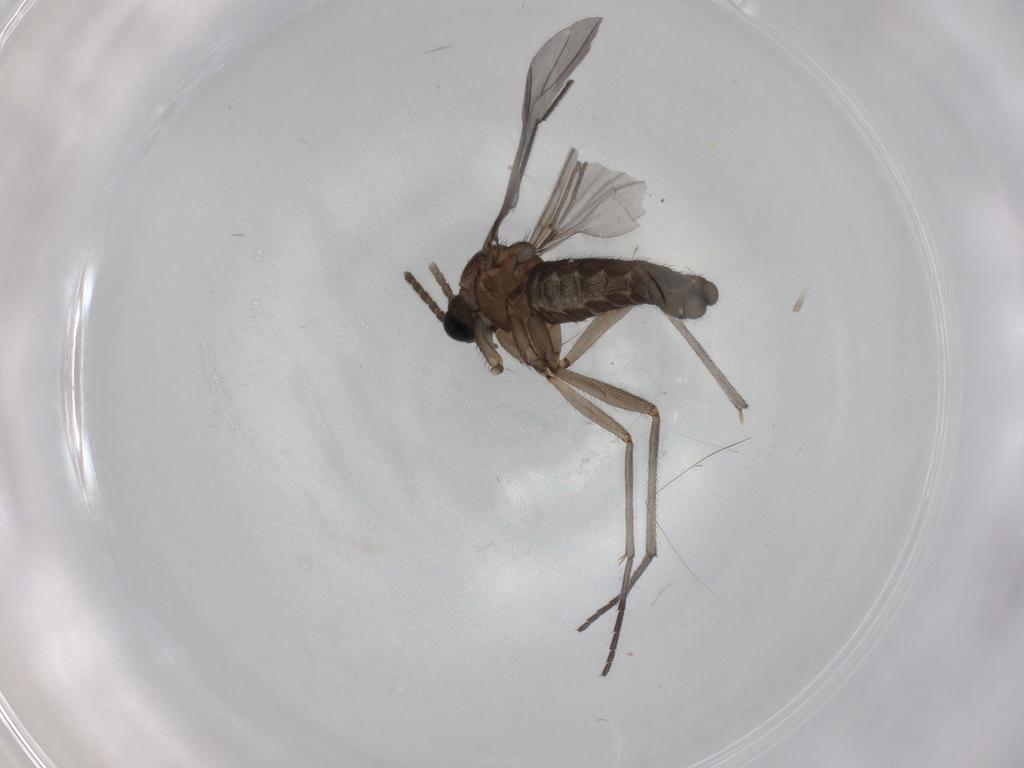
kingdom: Animalia
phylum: Arthropoda
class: Insecta
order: Diptera
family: Sciaridae
